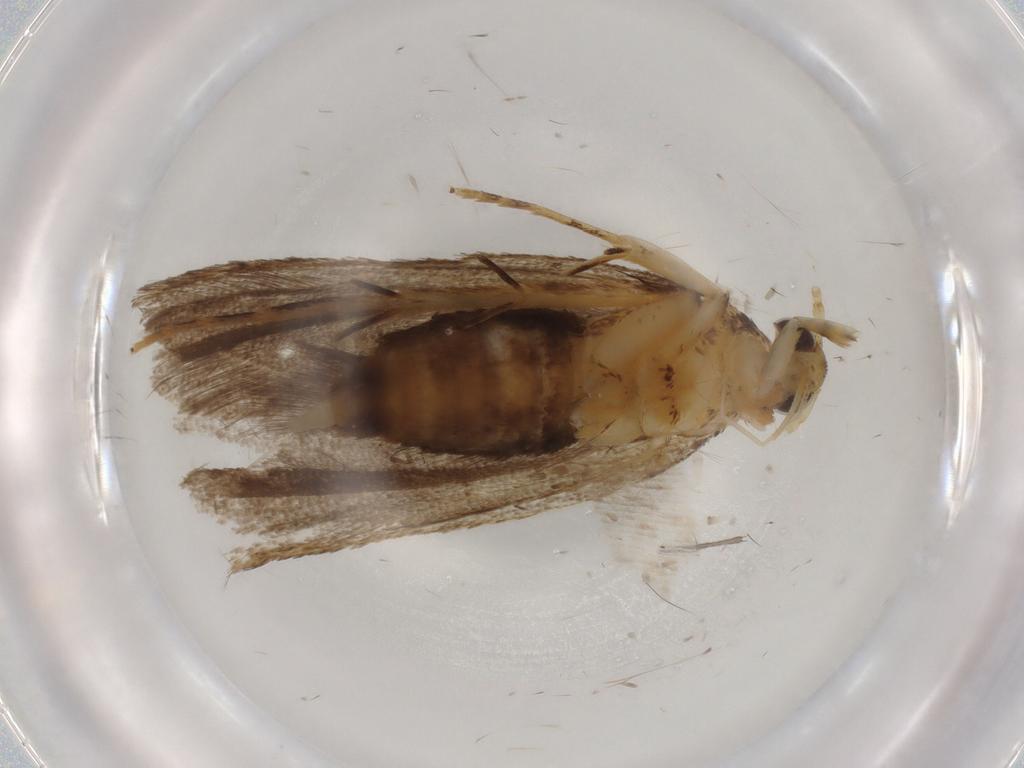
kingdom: Animalia
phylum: Arthropoda
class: Insecta
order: Lepidoptera
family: Lecithoceridae
